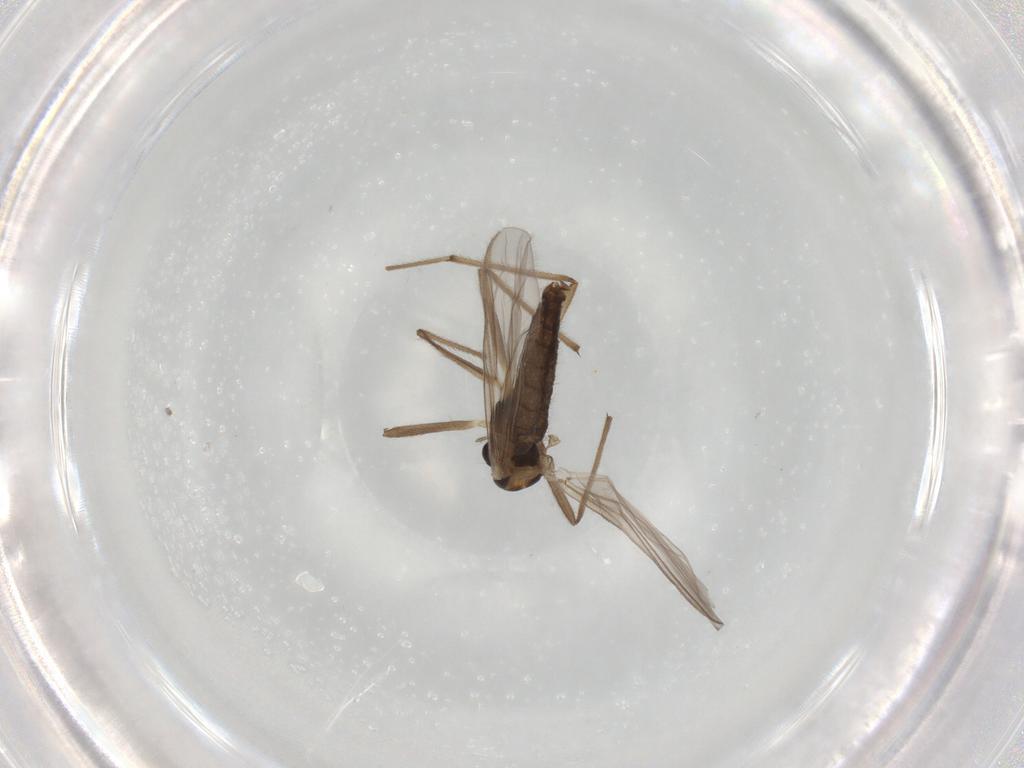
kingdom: Animalia
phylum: Arthropoda
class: Insecta
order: Diptera
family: Chironomidae
